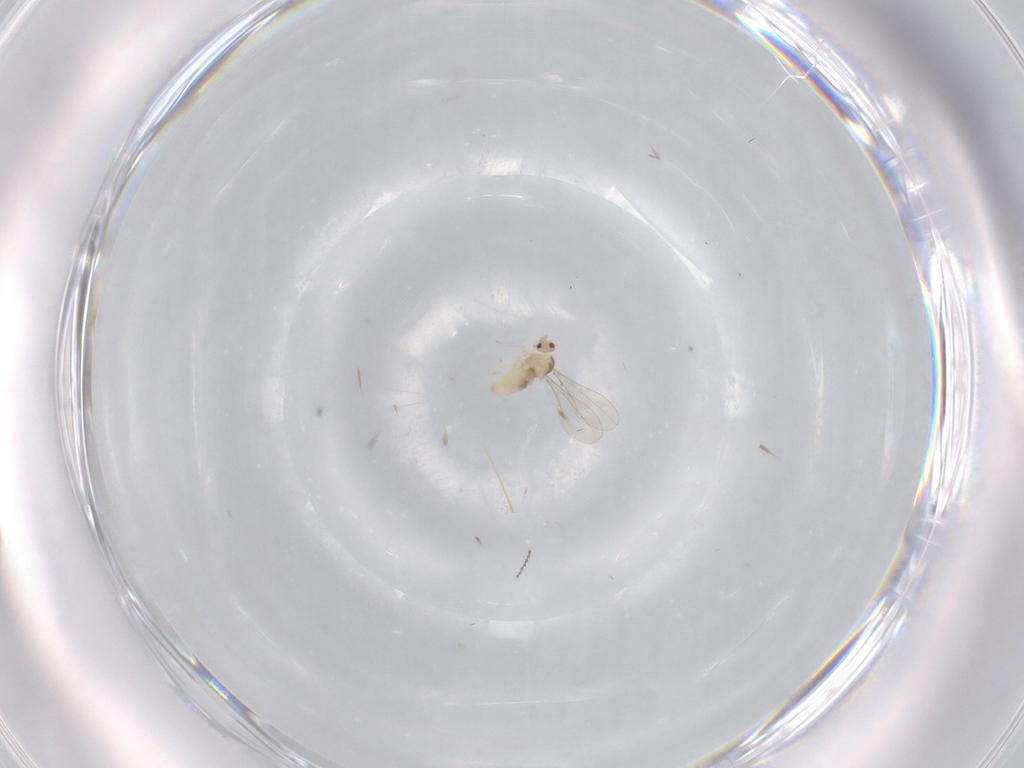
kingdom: Animalia
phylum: Arthropoda
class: Insecta
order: Diptera
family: Cecidomyiidae
